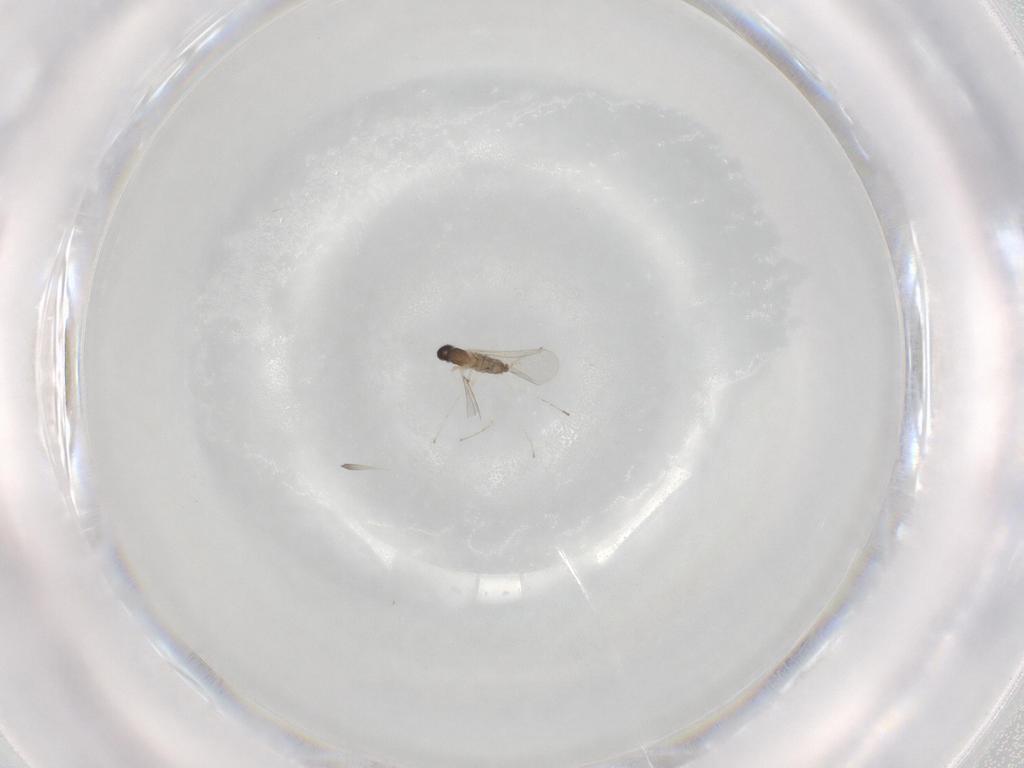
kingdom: Animalia
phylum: Arthropoda
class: Insecta
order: Diptera
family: Cecidomyiidae
